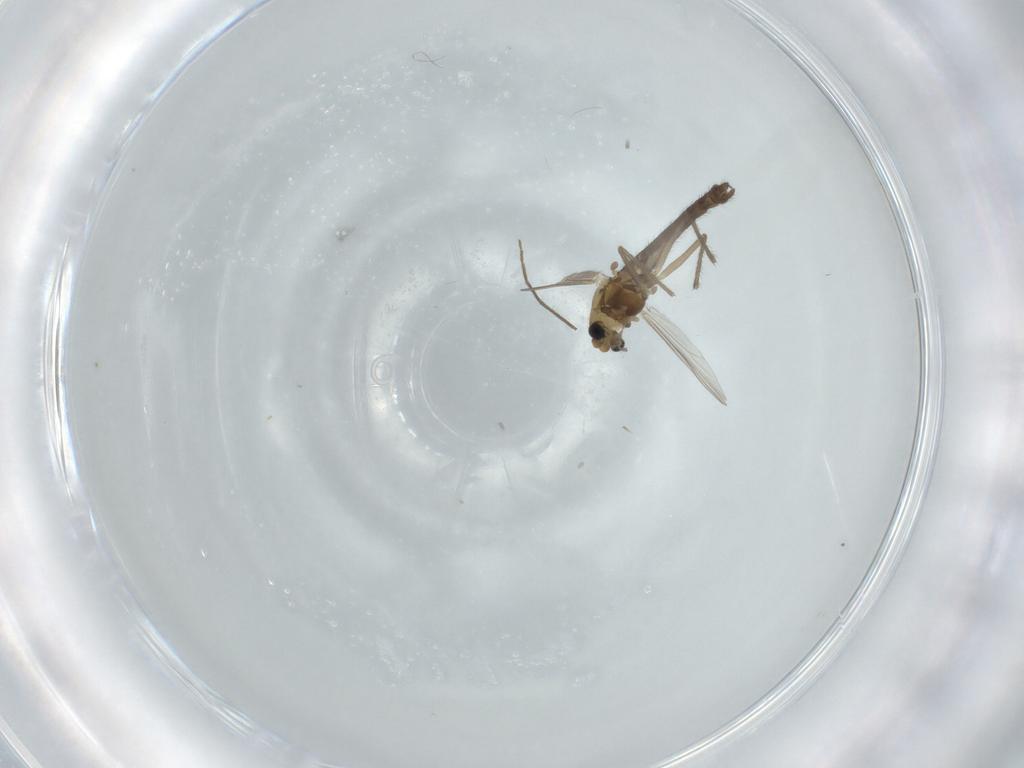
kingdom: Animalia
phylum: Arthropoda
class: Insecta
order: Diptera
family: Chironomidae
